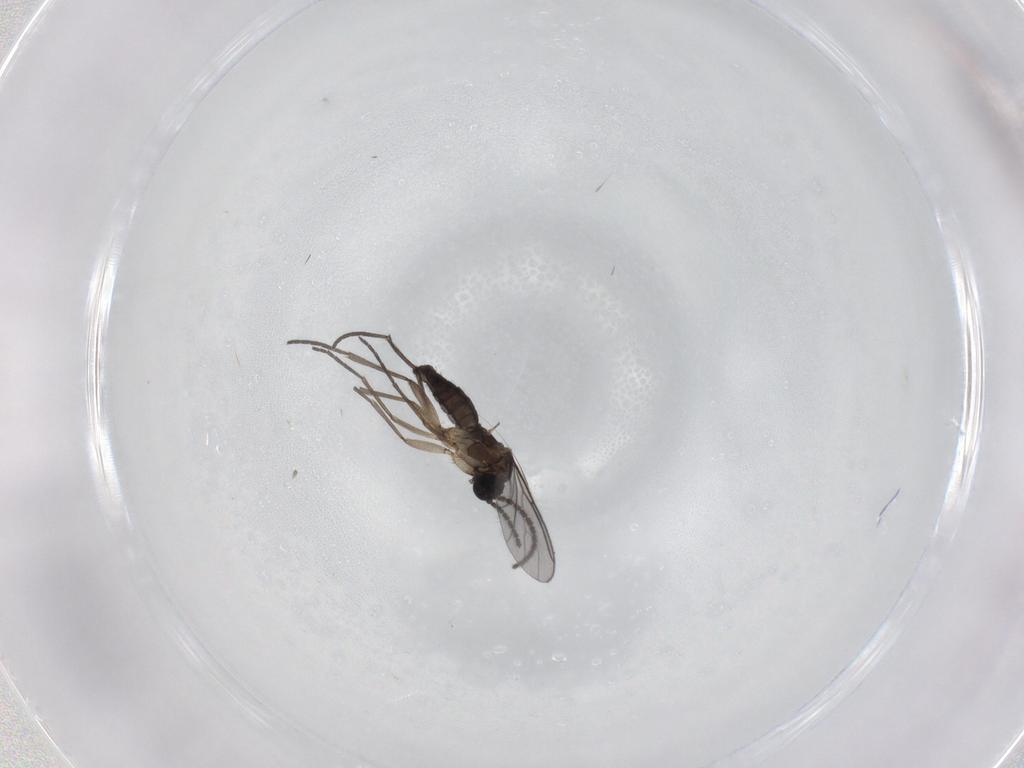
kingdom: Animalia
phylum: Arthropoda
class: Insecta
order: Diptera
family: Sciaridae
